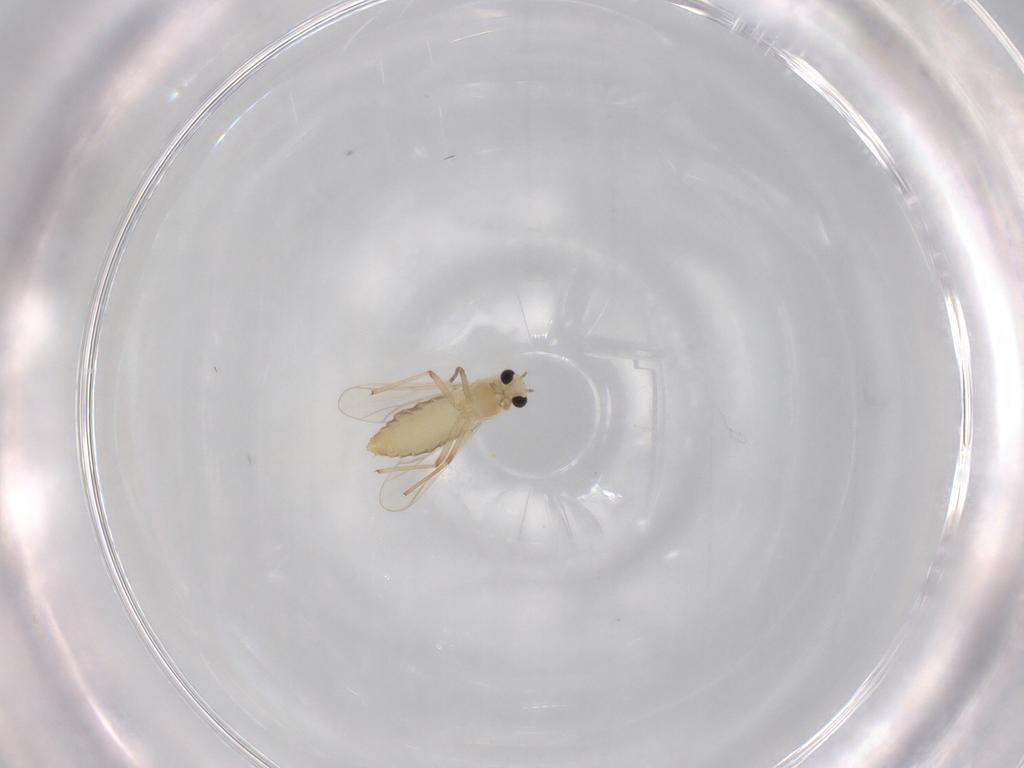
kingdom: Animalia
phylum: Arthropoda
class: Insecta
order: Diptera
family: Chironomidae
